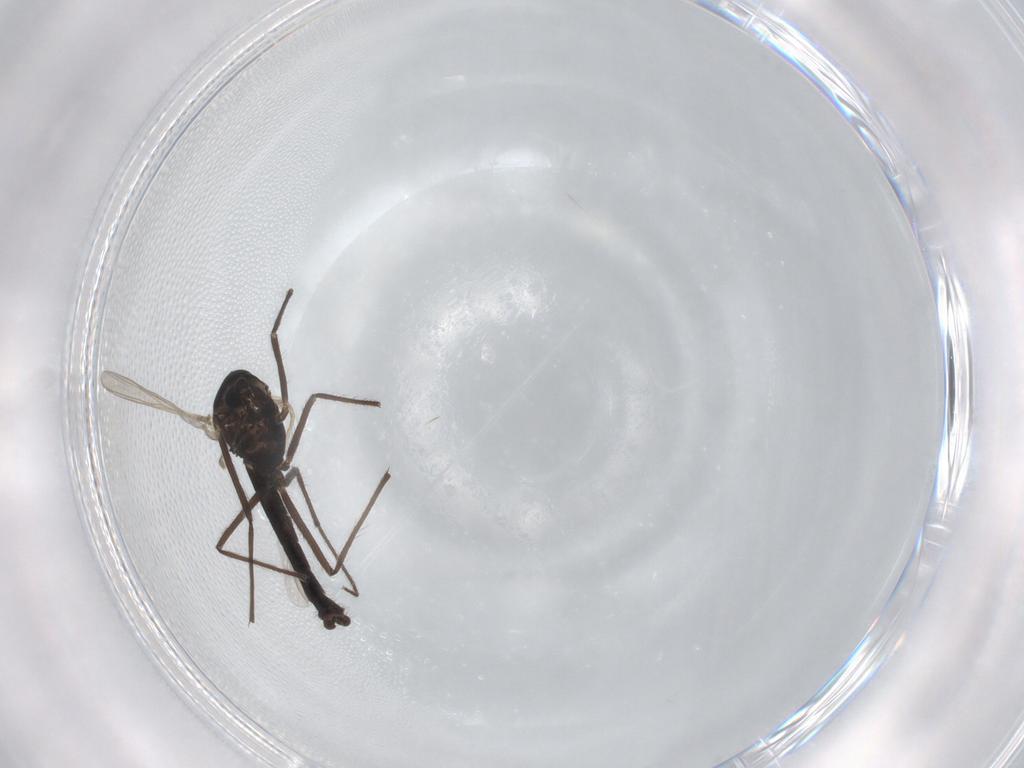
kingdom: Animalia
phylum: Arthropoda
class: Insecta
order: Diptera
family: Chironomidae
